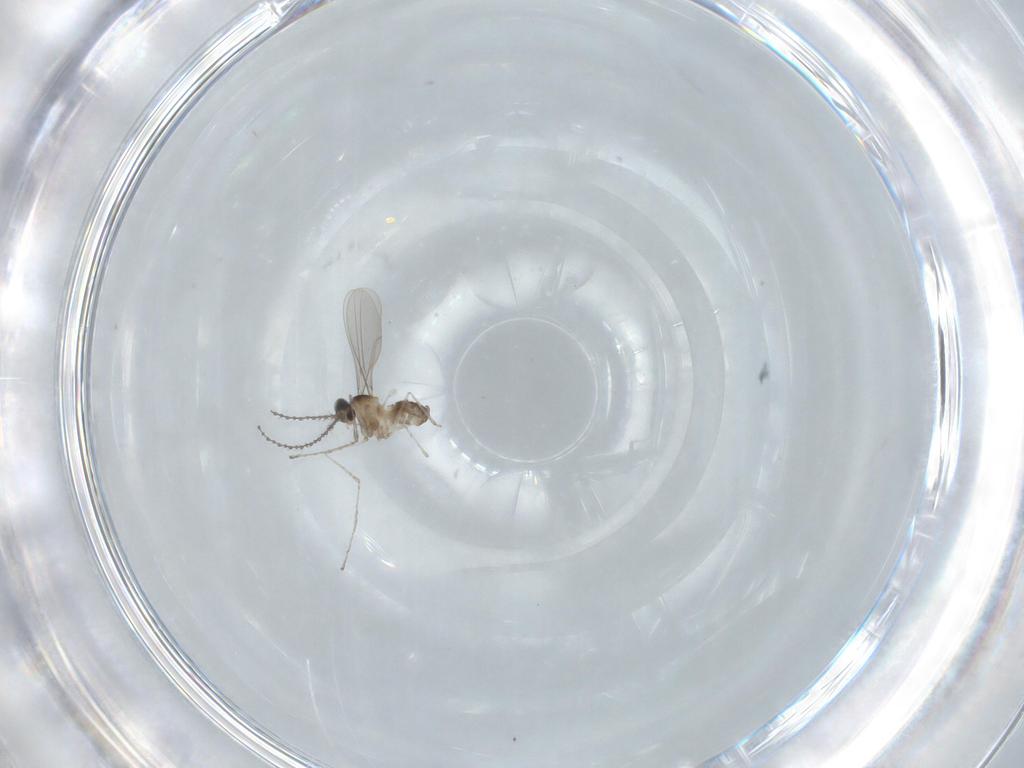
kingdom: Animalia
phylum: Arthropoda
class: Insecta
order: Diptera
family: Cecidomyiidae
